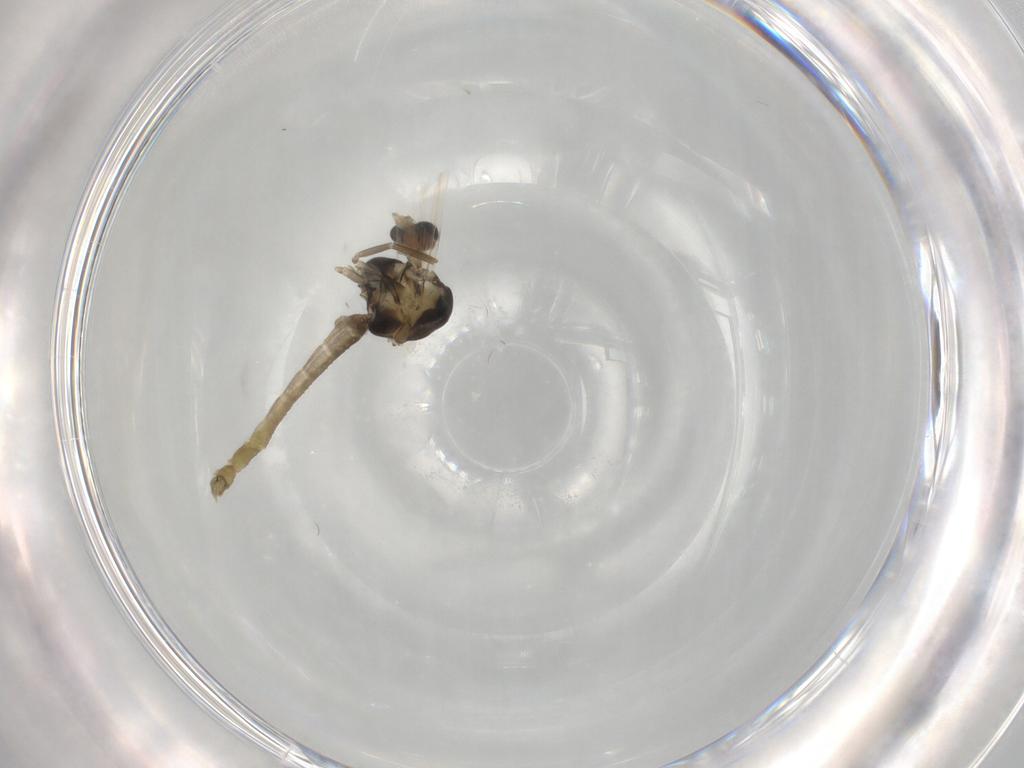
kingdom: Animalia
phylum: Arthropoda
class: Insecta
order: Diptera
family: Chironomidae
